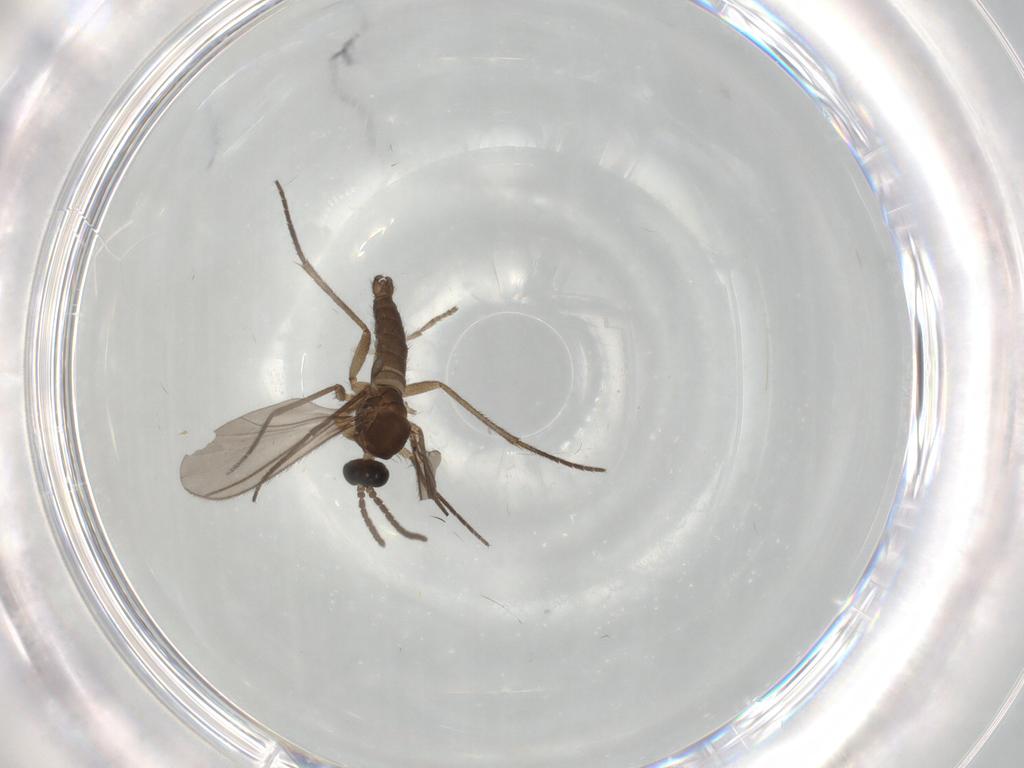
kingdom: Animalia
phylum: Arthropoda
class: Insecta
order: Diptera
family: Sciaridae
